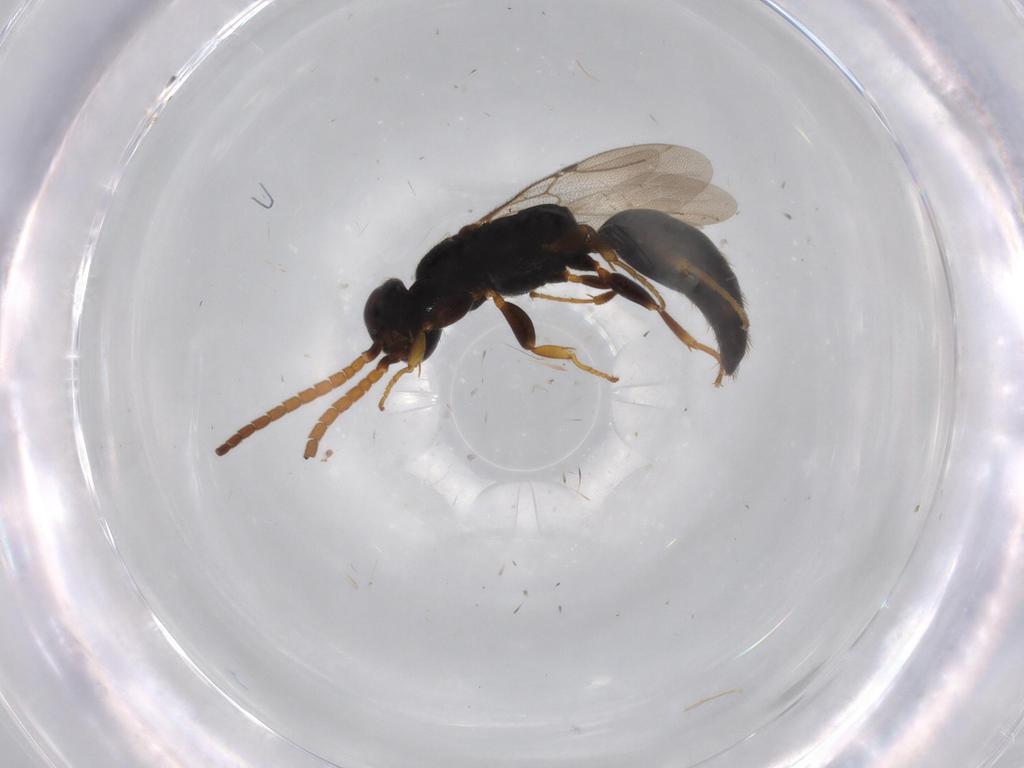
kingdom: Animalia
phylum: Arthropoda
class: Insecta
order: Hymenoptera
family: Bethylidae
